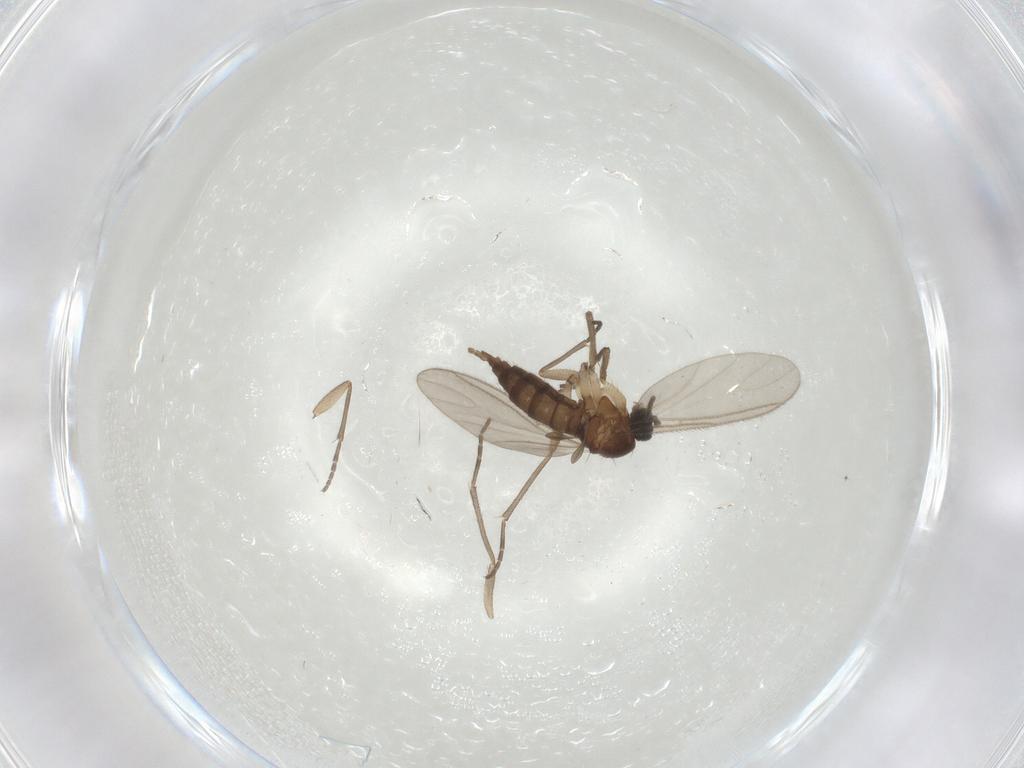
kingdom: Animalia
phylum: Arthropoda
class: Insecta
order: Diptera
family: Sciaridae
